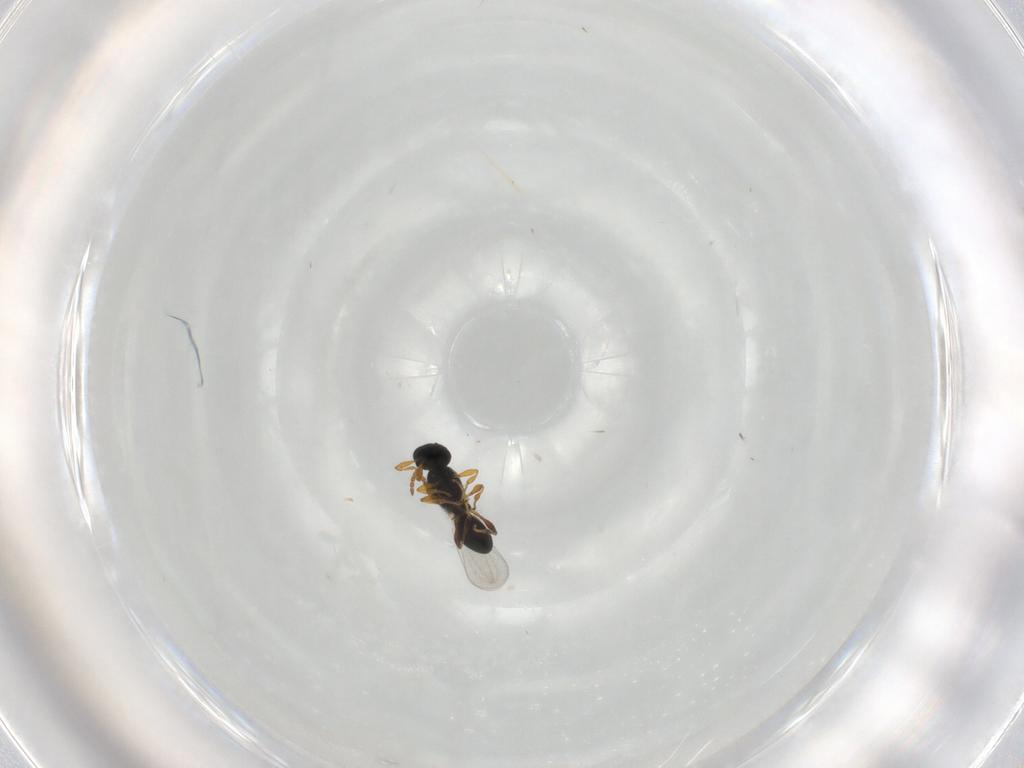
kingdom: Animalia
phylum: Arthropoda
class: Insecta
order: Hymenoptera
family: Platygastridae
